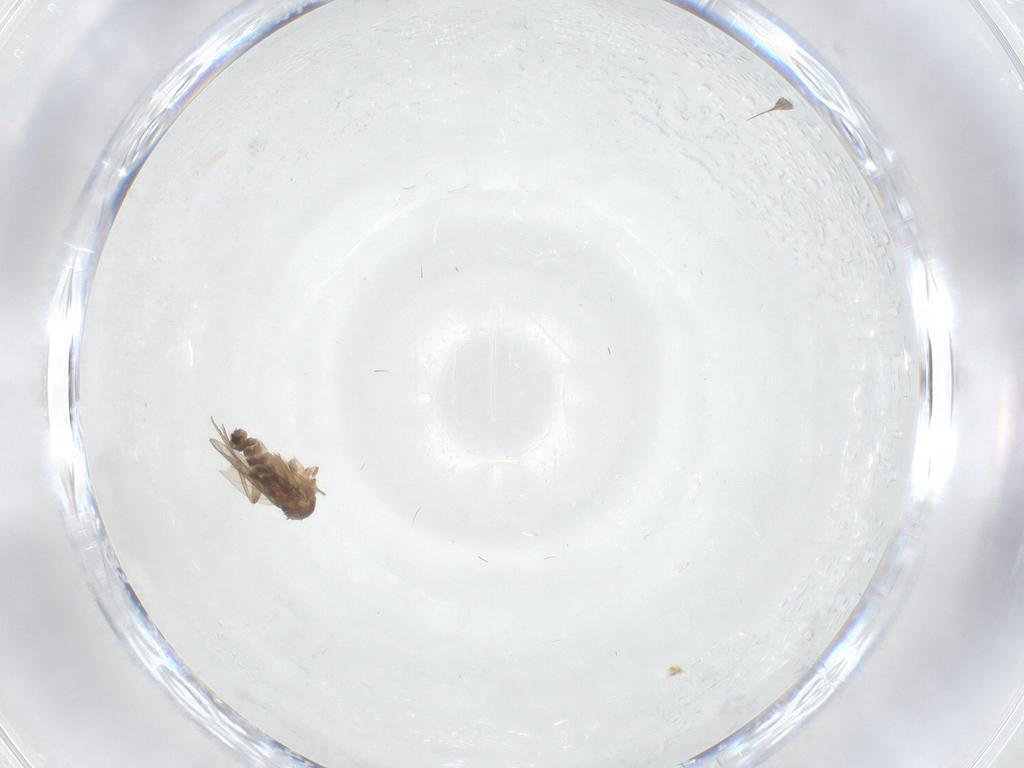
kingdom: Animalia
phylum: Arthropoda
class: Insecta
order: Diptera
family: Phoridae
